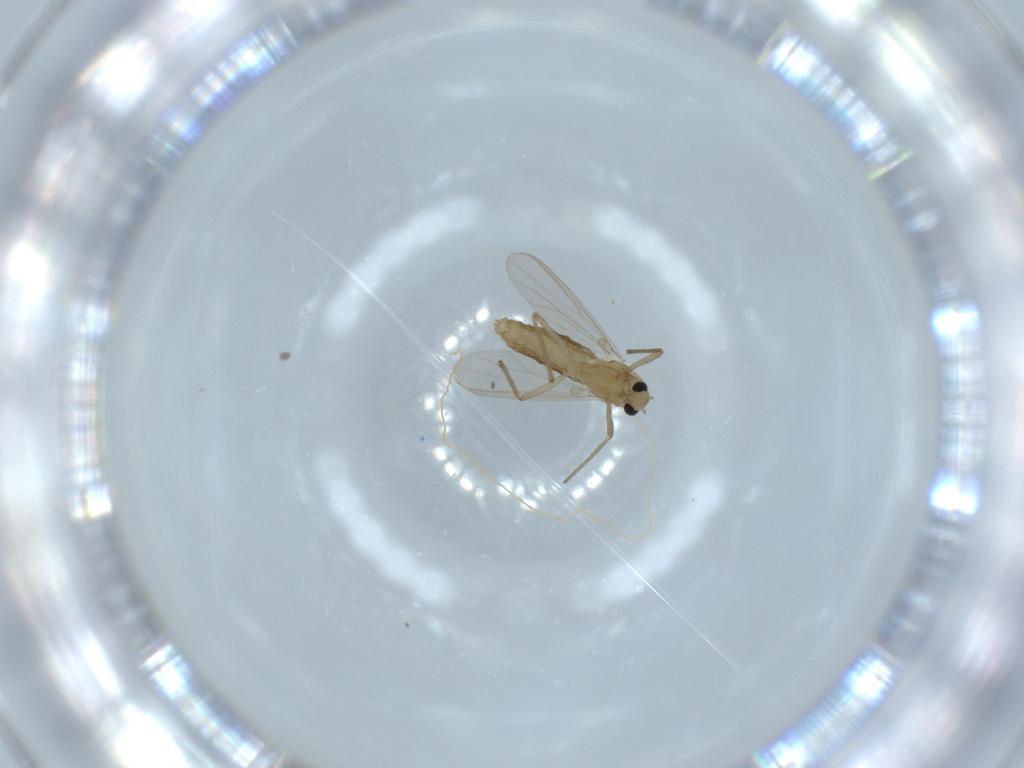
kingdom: Animalia
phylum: Arthropoda
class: Insecta
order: Diptera
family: Chironomidae
